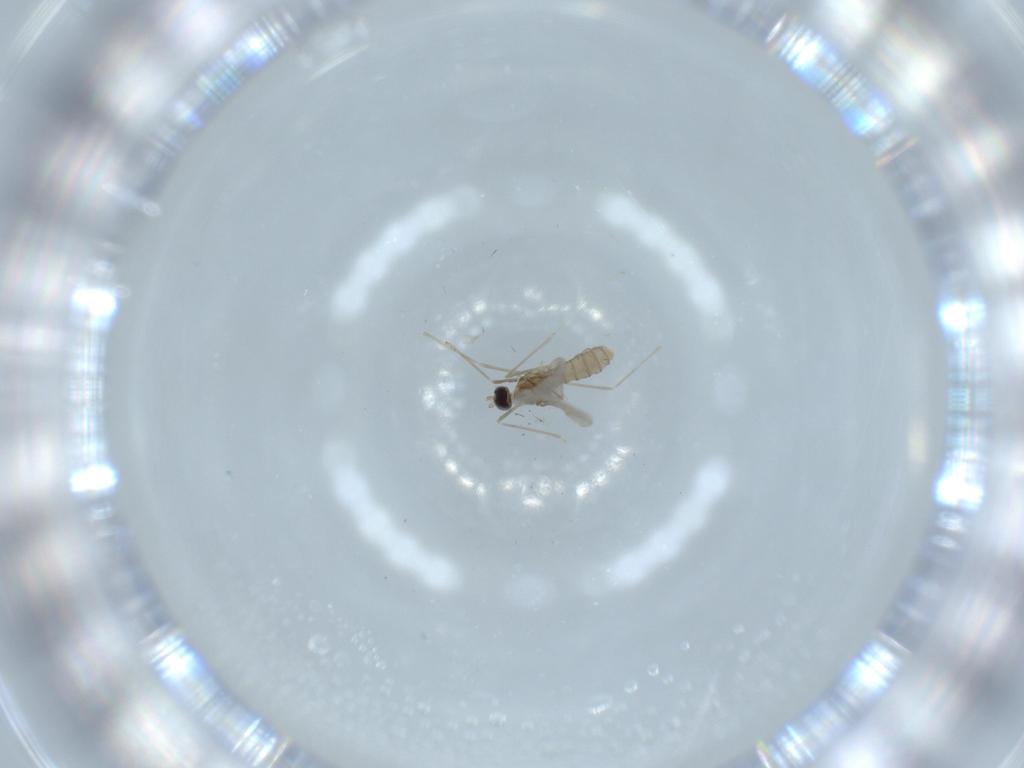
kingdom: Animalia
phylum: Arthropoda
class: Insecta
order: Diptera
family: Cecidomyiidae
